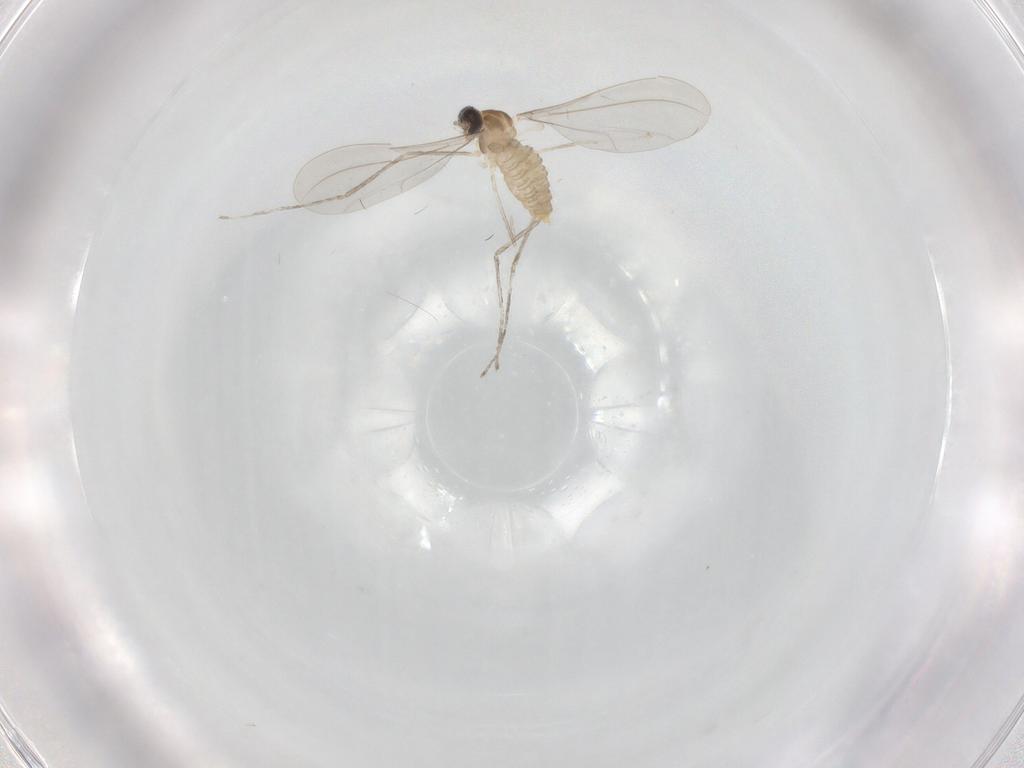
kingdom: Animalia
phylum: Arthropoda
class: Insecta
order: Diptera
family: Cecidomyiidae
